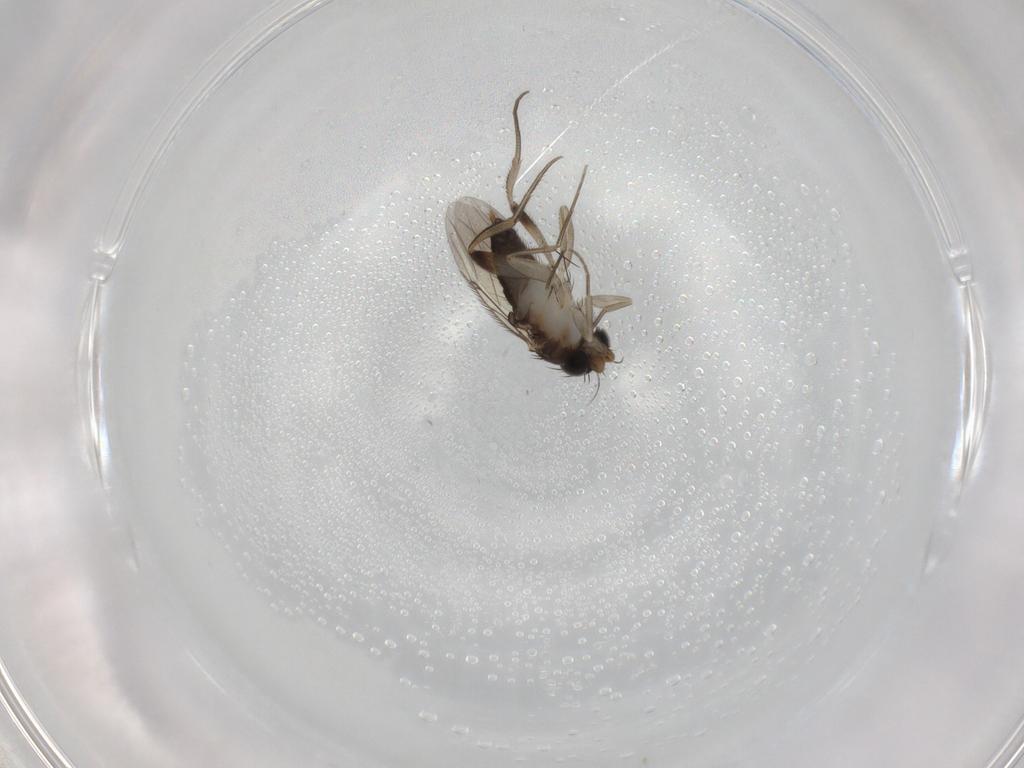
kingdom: Animalia
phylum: Arthropoda
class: Insecta
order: Diptera
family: Phoridae
